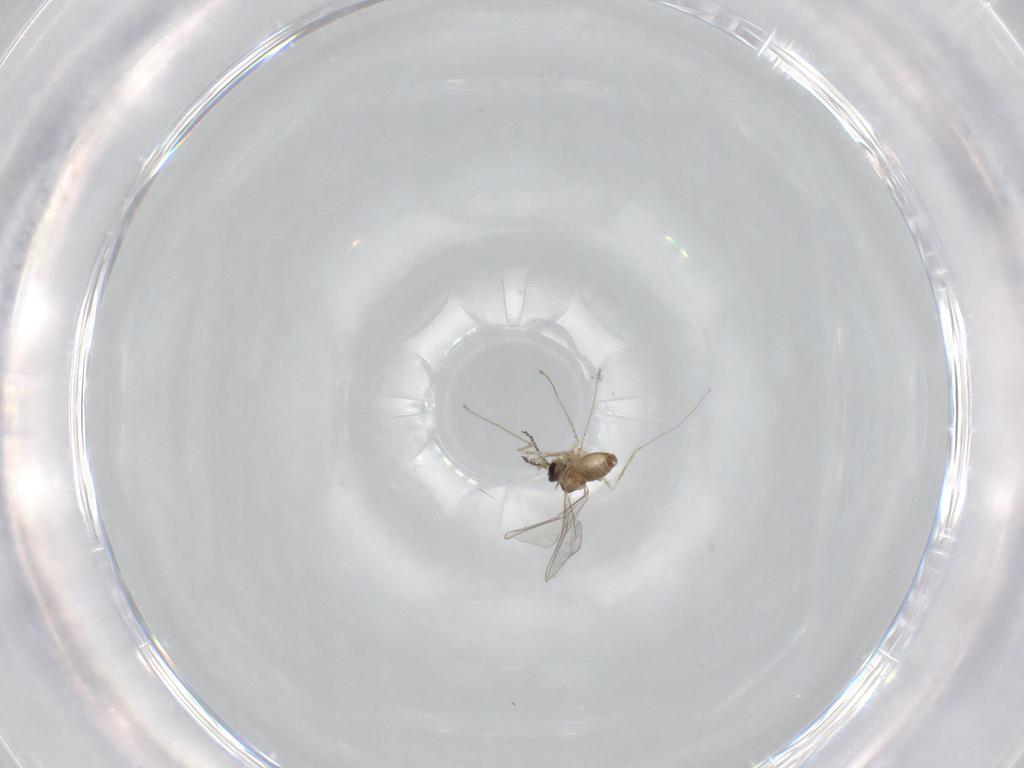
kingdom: Animalia
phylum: Arthropoda
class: Insecta
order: Diptera
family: Cecidomyiidae
